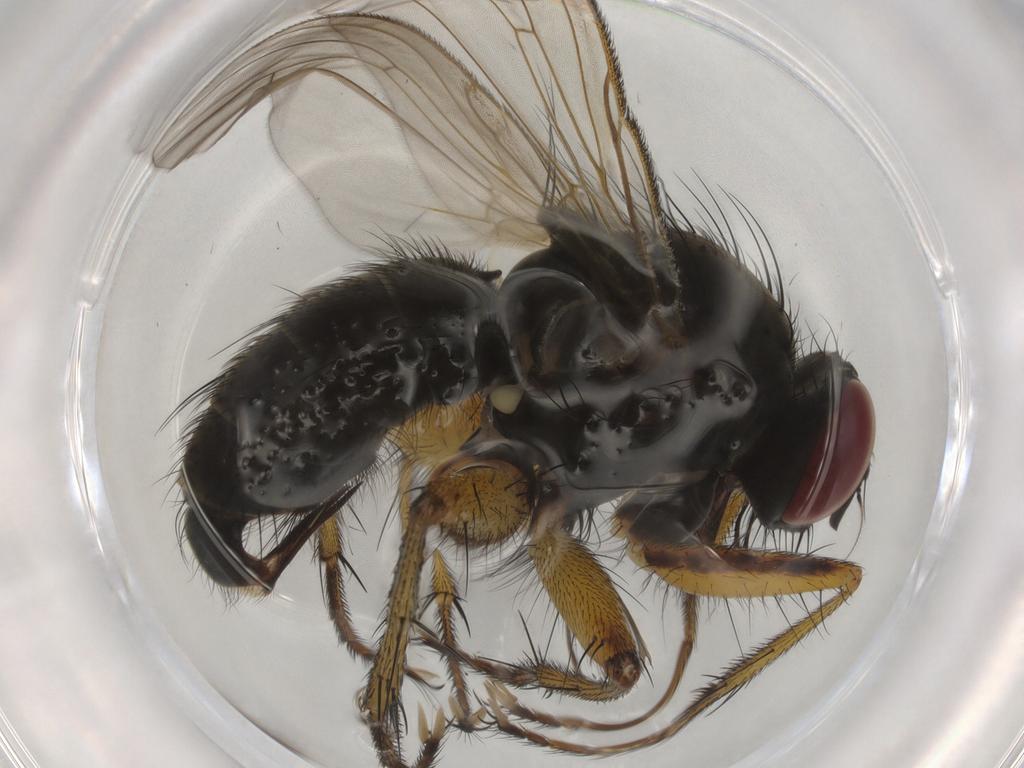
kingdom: Animalia
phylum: Arthropoda
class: Insecta
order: Diptera
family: Muscidae
